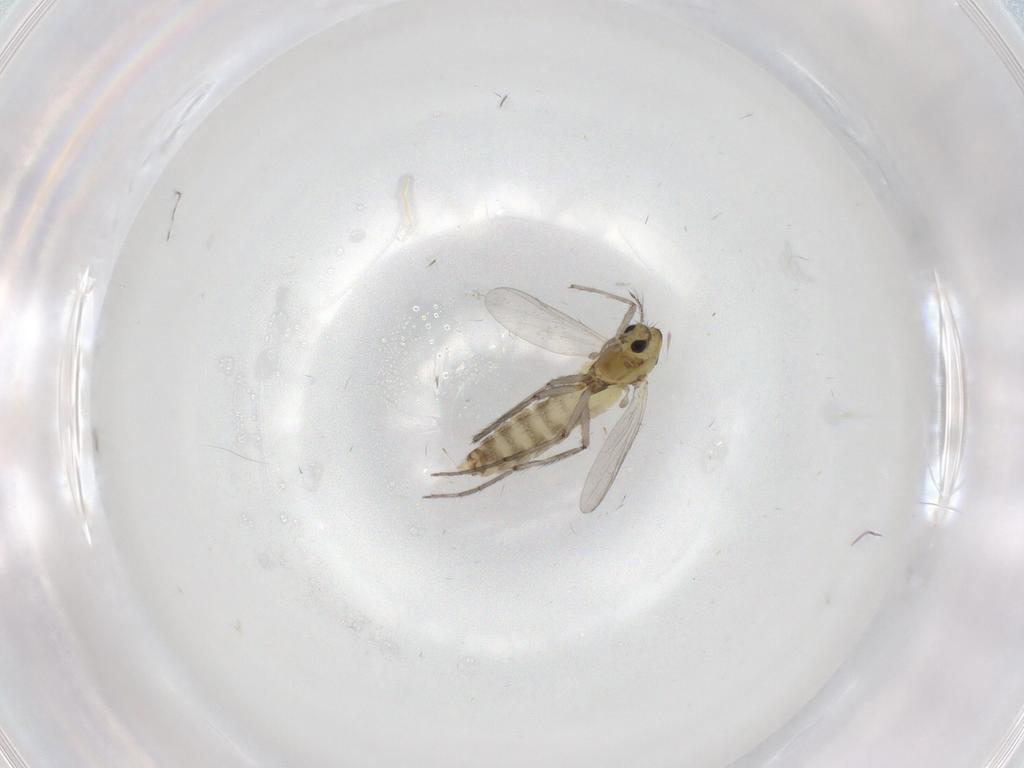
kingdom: Animalia
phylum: Arthropoda
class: Insecta
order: Diptera
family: Chironomidae
